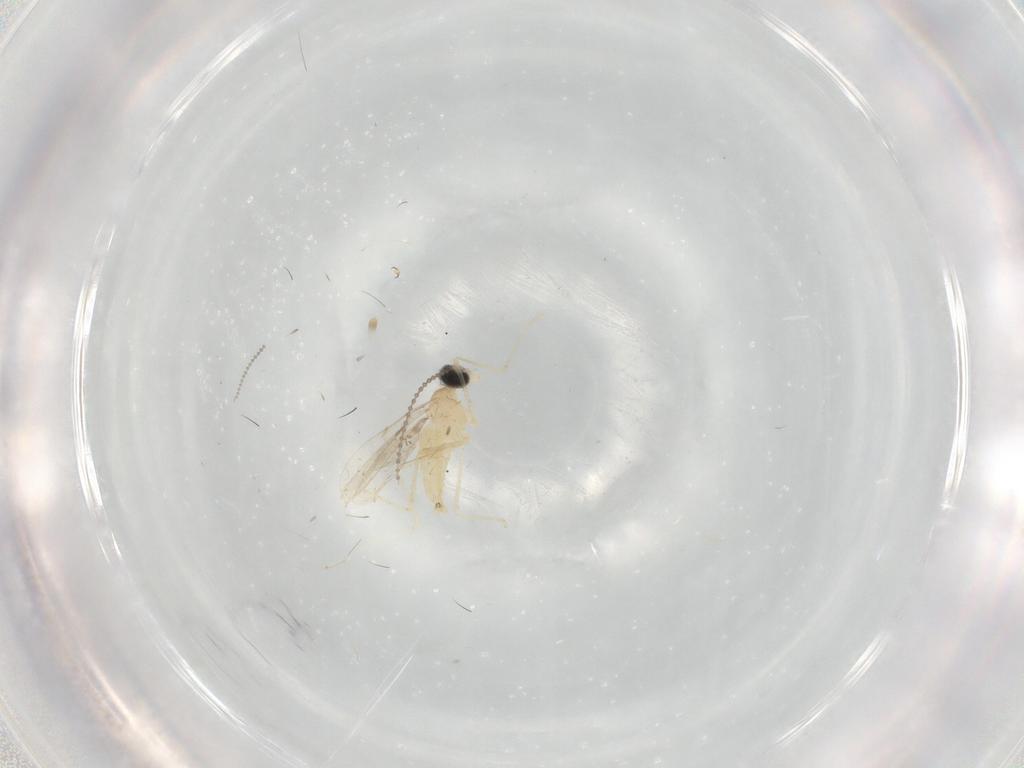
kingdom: Animalia
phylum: Arthropoda
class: Insecta
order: Diptera
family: Cecidomyiidae
